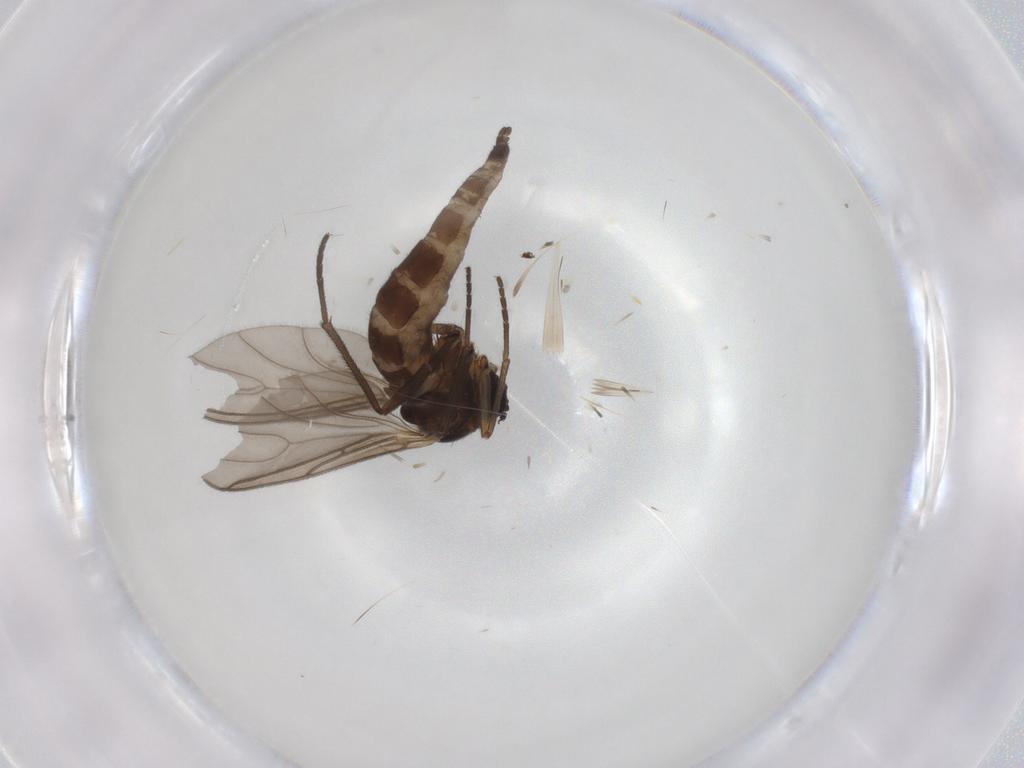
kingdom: Animalia
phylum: Arthropoda
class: Insecta
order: Diptera
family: Sciaridae
